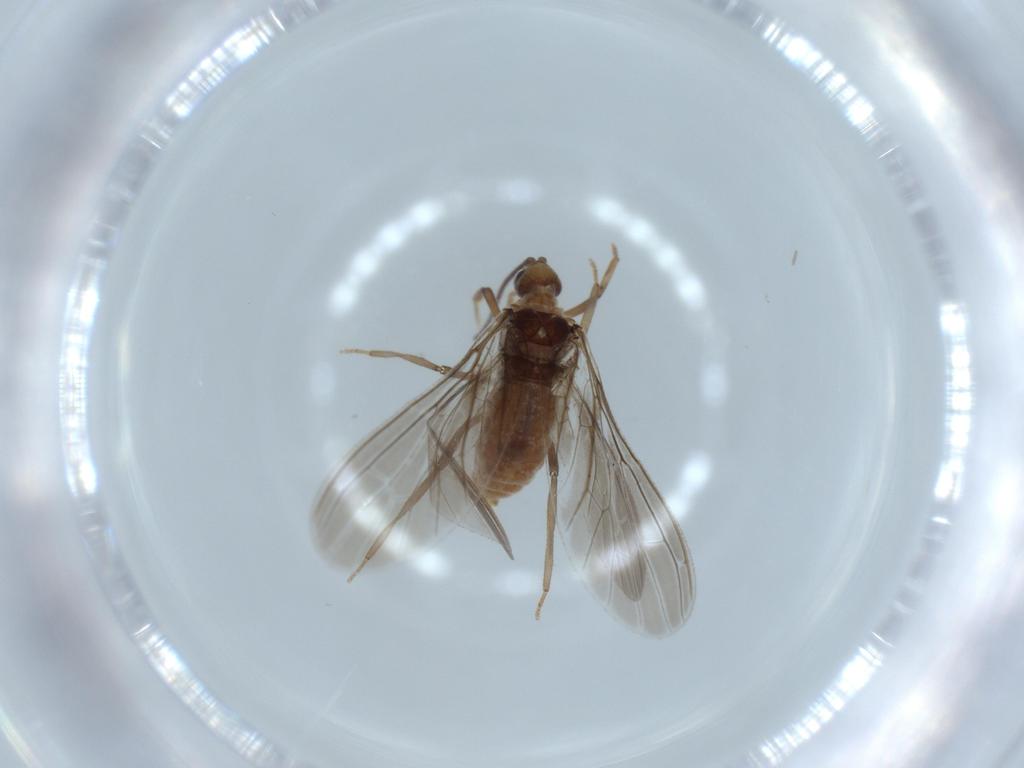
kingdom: Animalia
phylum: Arthropoda
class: Insecta
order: Neuroptera
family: Coniopterygidae
